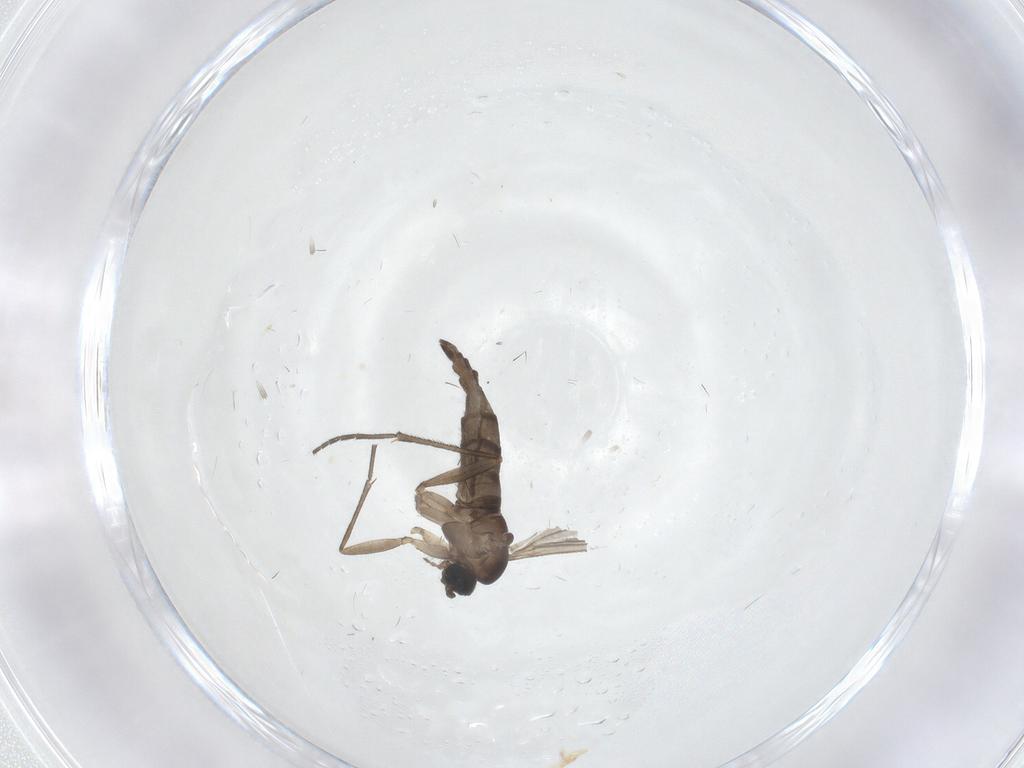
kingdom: Animalia
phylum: Arthropoda
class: Insecta
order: Diptera
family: Sciaridae
